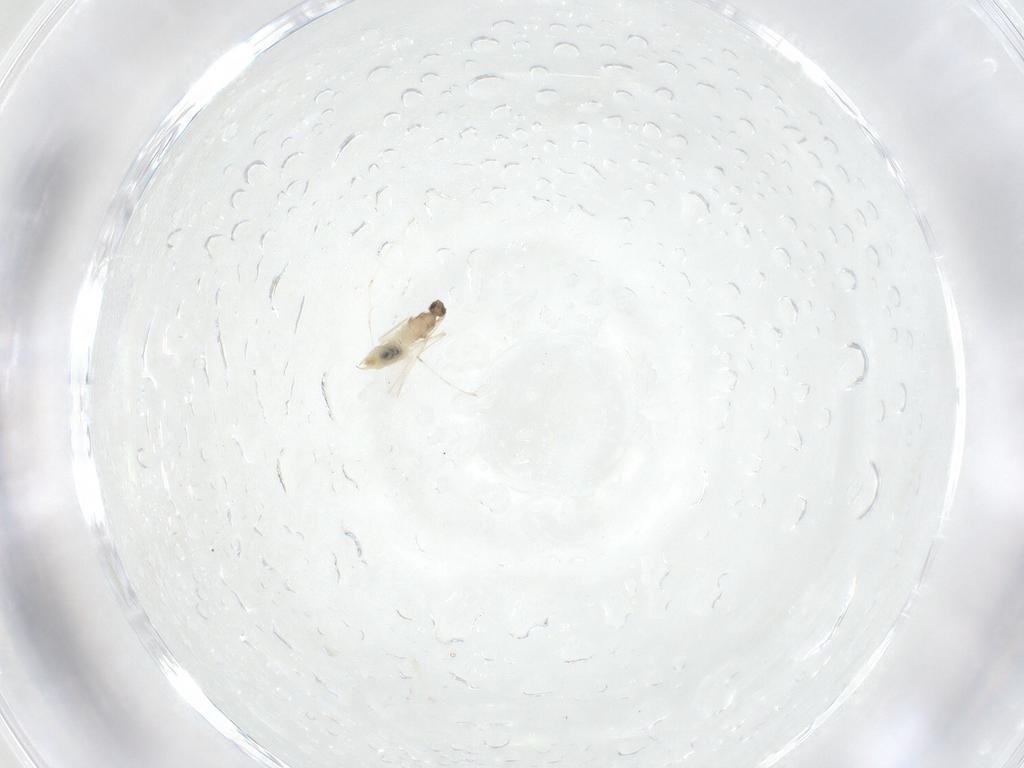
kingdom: Animalia
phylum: Arthropoda
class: Insecta
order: Diptera
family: Cecidomyiidae
